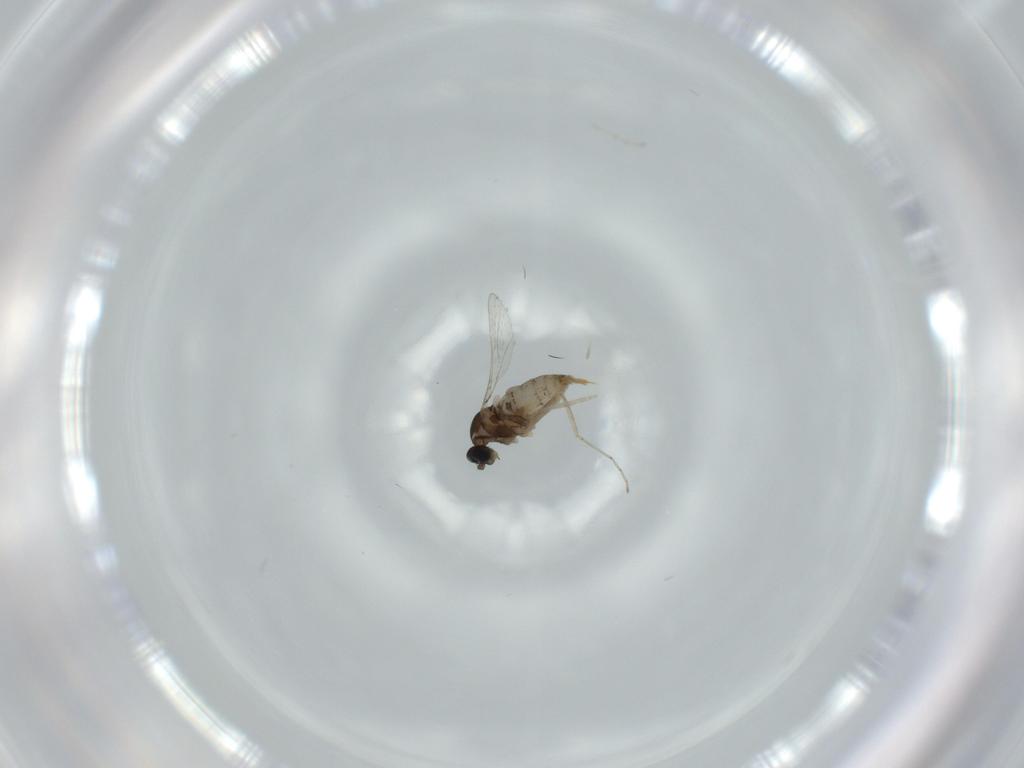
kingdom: Animalia
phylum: Arthropoda
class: Insecta
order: Diptera
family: Cecidomyiidae
